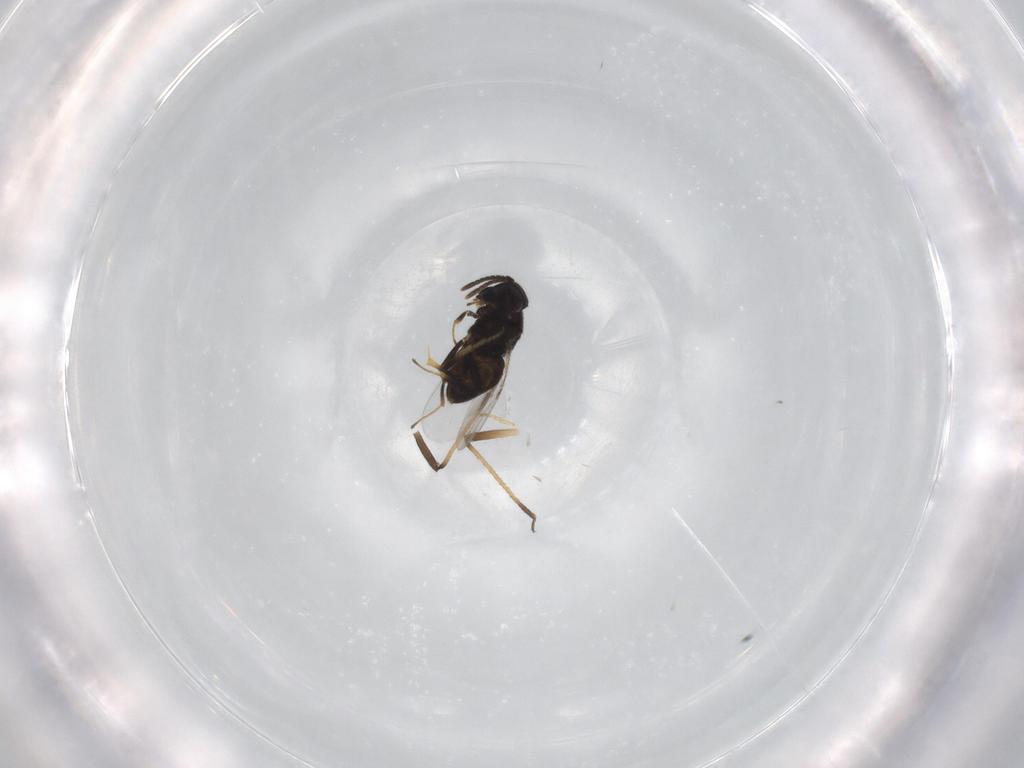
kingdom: Animalia
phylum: Arthropoda
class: Insecta
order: Hymenoptera
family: Encyrtidae
